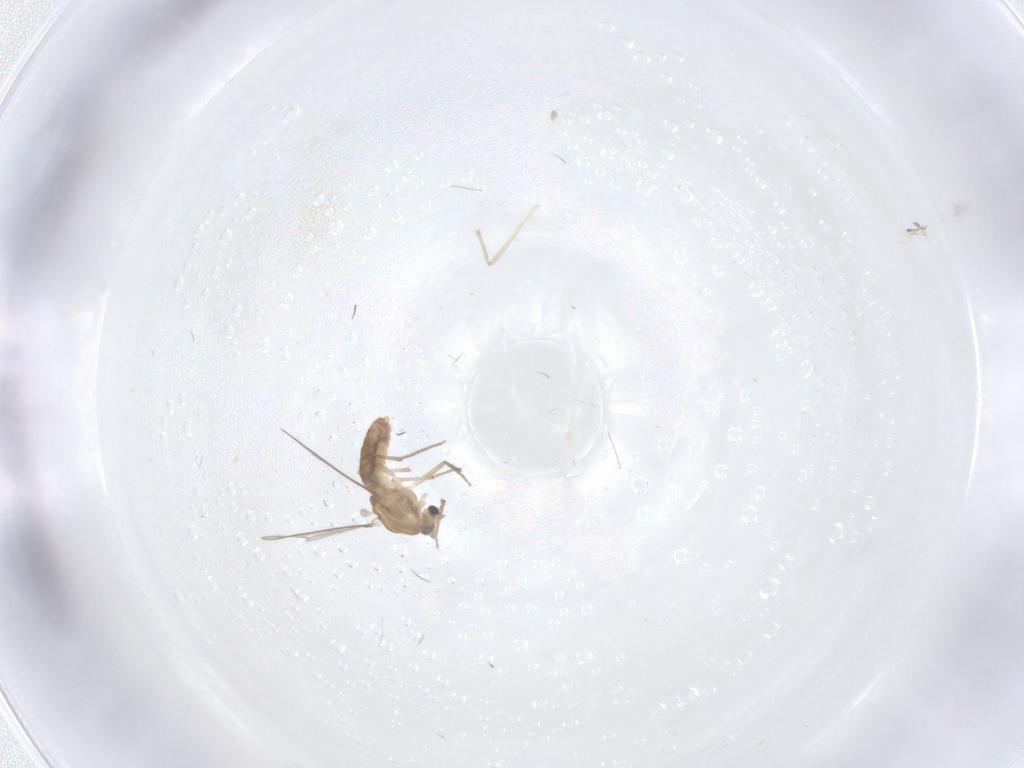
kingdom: Animalia
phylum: Arthropoda
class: Insecta
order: Diptera
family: Chironomidae
